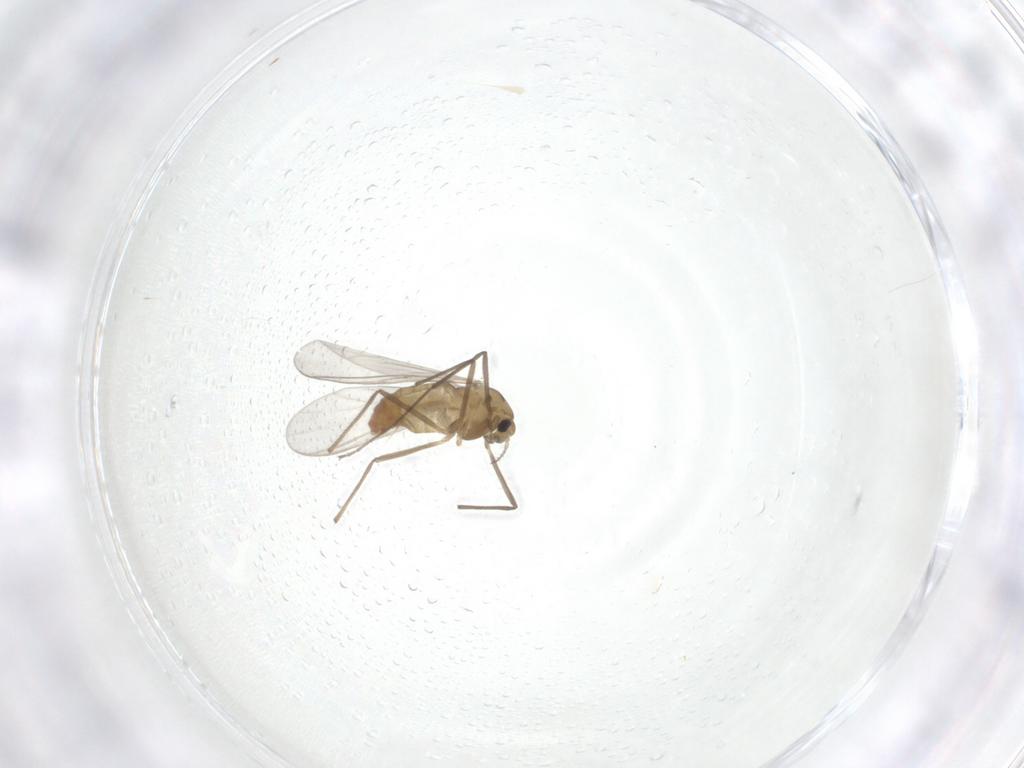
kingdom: Animalia
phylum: Arthropoda
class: Insecta
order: Diptera
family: Chironomidae
